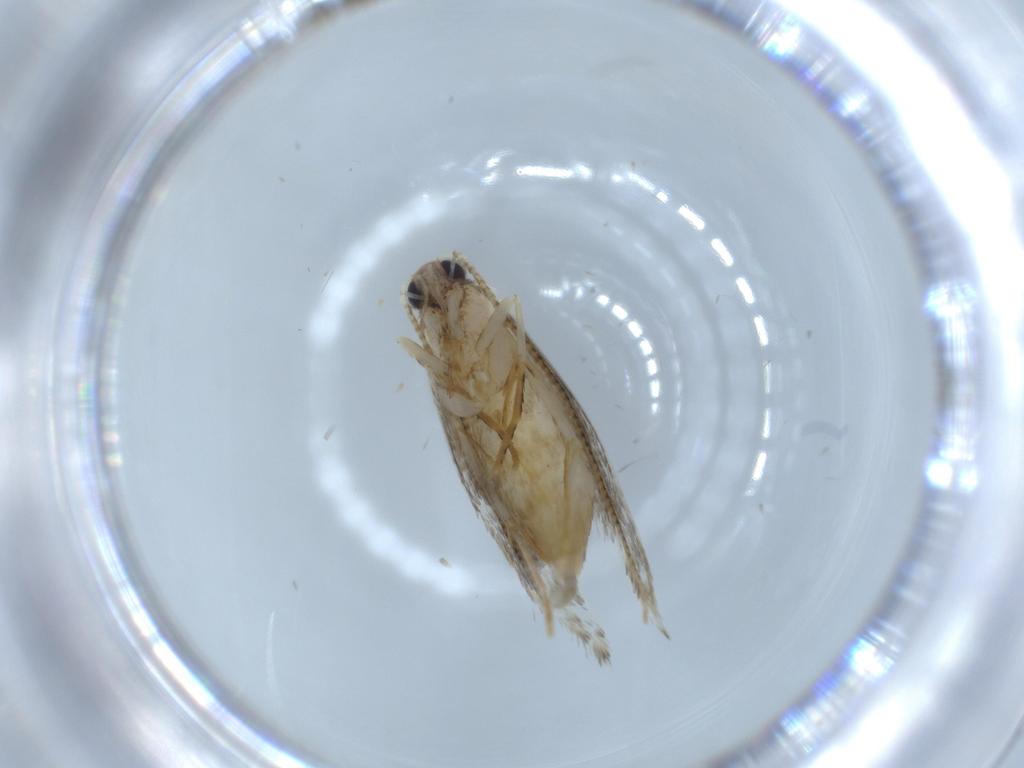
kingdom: Animalia
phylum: Arthropoda
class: Insecta
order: Lepidoptera
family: Tineidae
